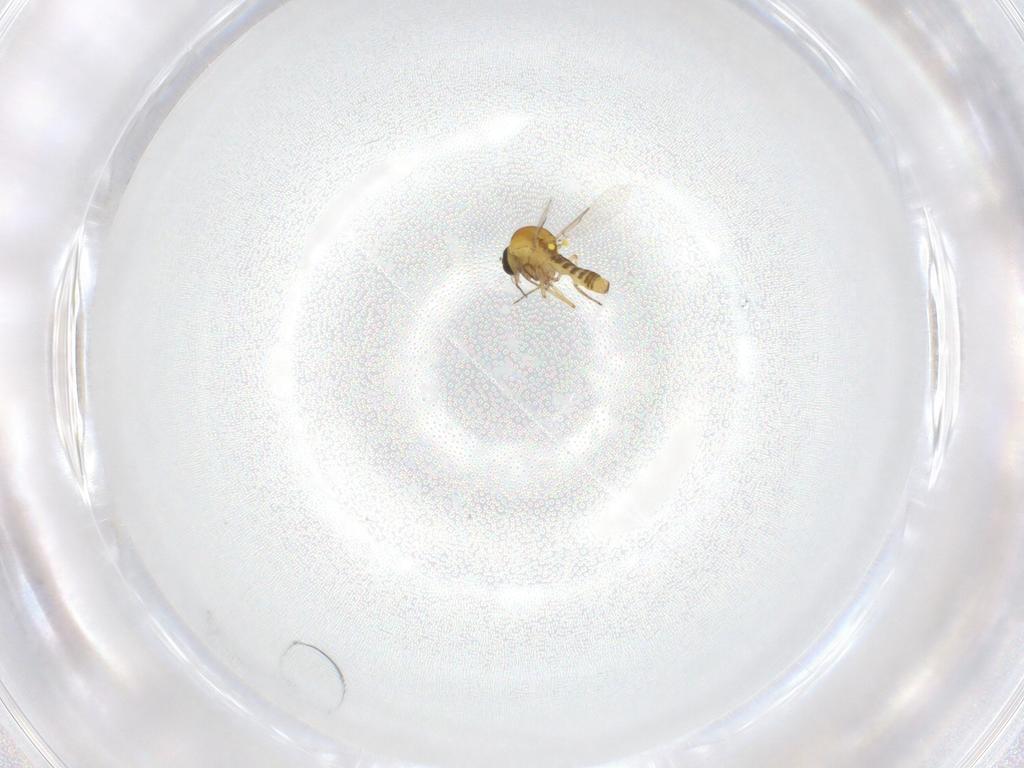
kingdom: Animalia
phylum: Arthropoda
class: Insecta
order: Diptera
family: Ceratopogonidae
